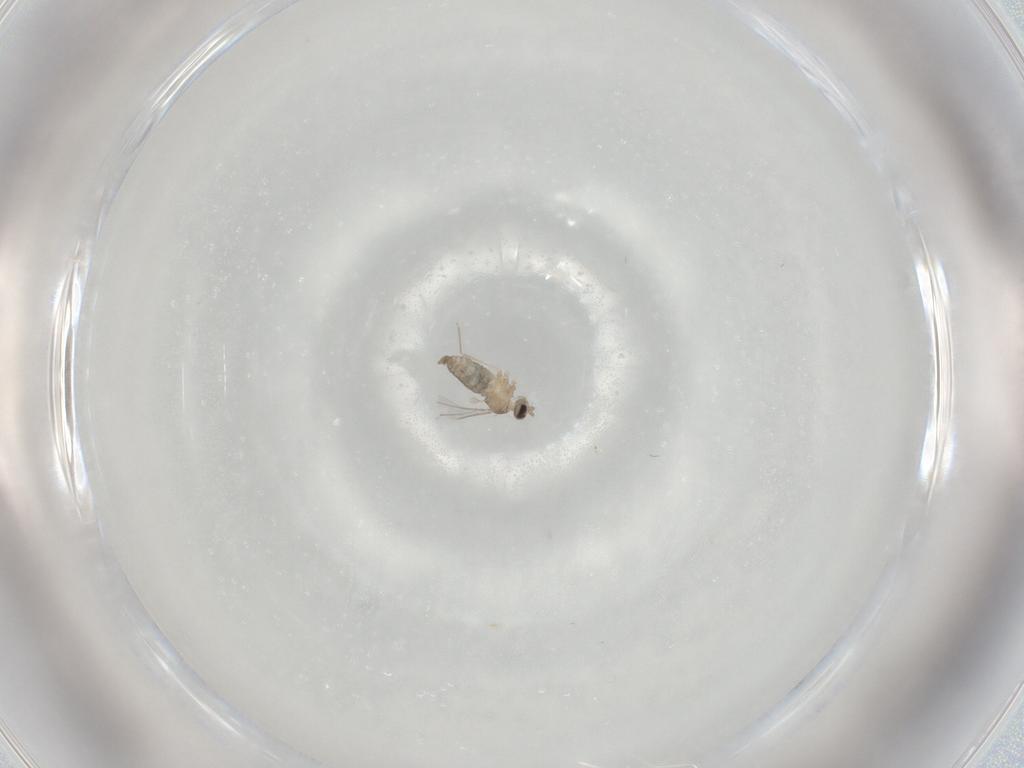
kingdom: Animalia
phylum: Arthropoda
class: Insecta
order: Diptera
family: Cecidomyiidae
